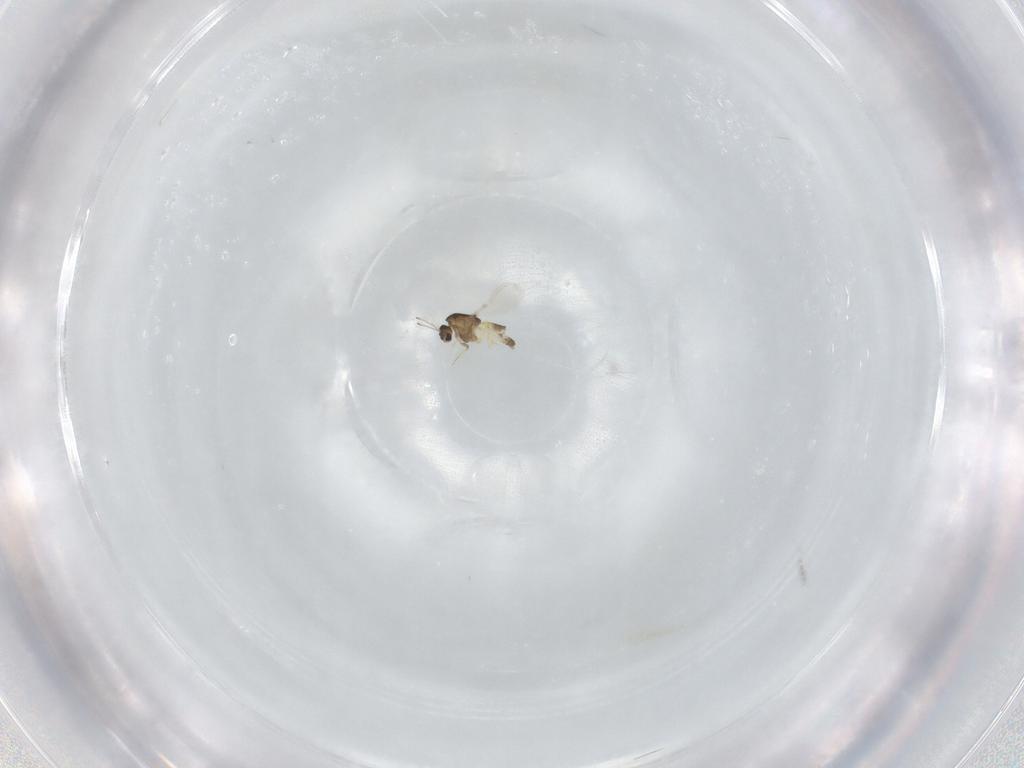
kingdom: Animalia
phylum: Arthropoda
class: Insecta
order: Diptera
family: Chironomidae
